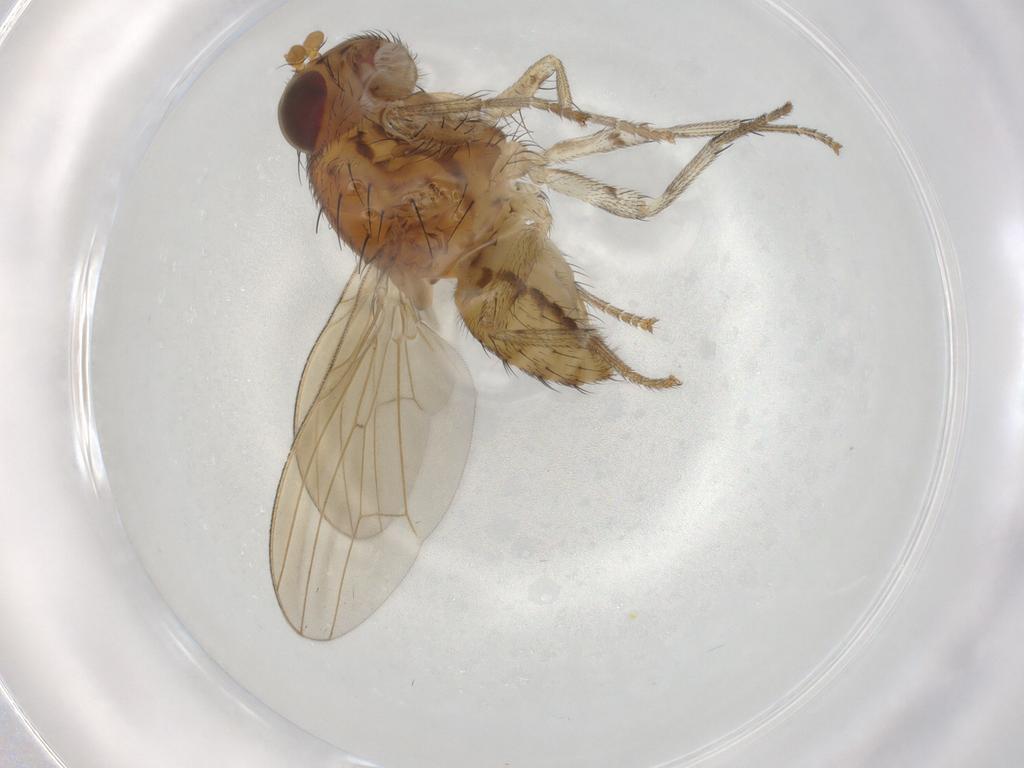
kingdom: Animalia
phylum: Arthropoda
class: Insecta
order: Diptera
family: Lauxaniidae
